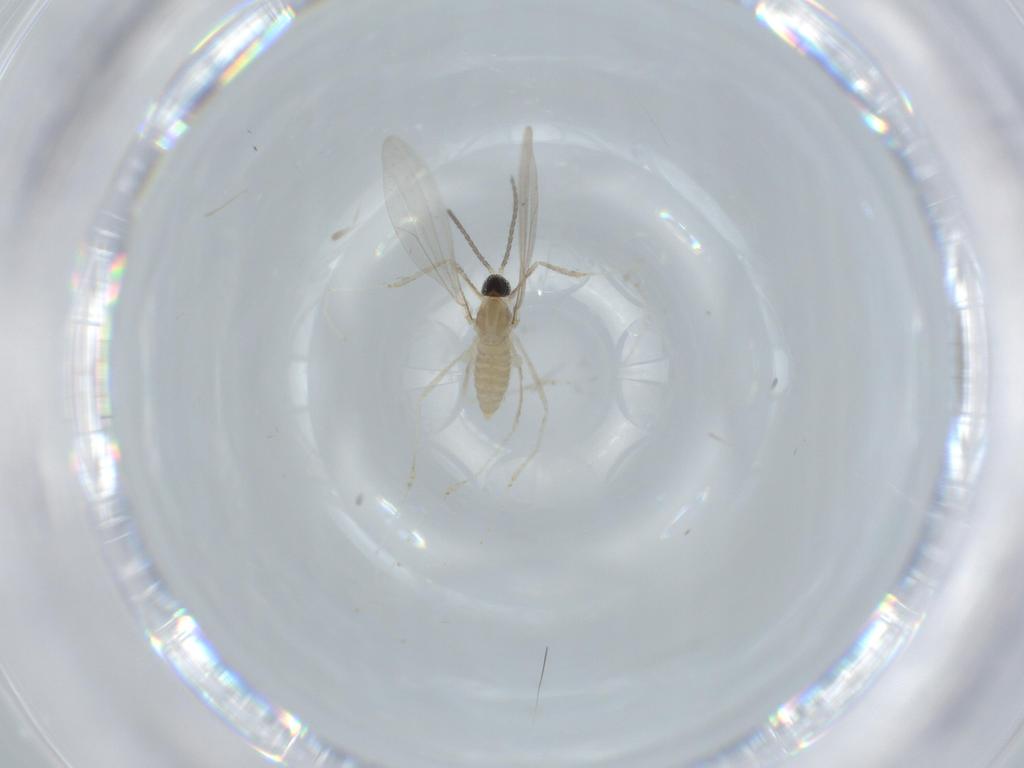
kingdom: Animalia
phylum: Arthropoda
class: Insecta
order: Diptera
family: Cecidomyiidae
